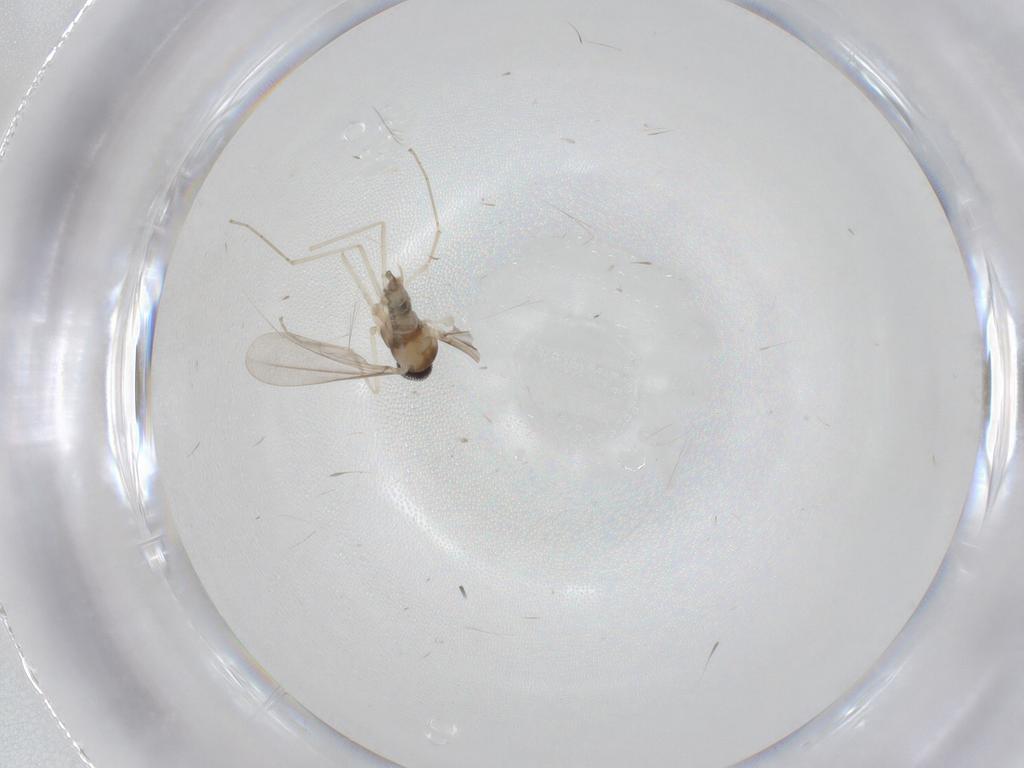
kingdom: Animalia
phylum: Arthropoda
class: Insecta
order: Diptera
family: Cecidomyiidae
